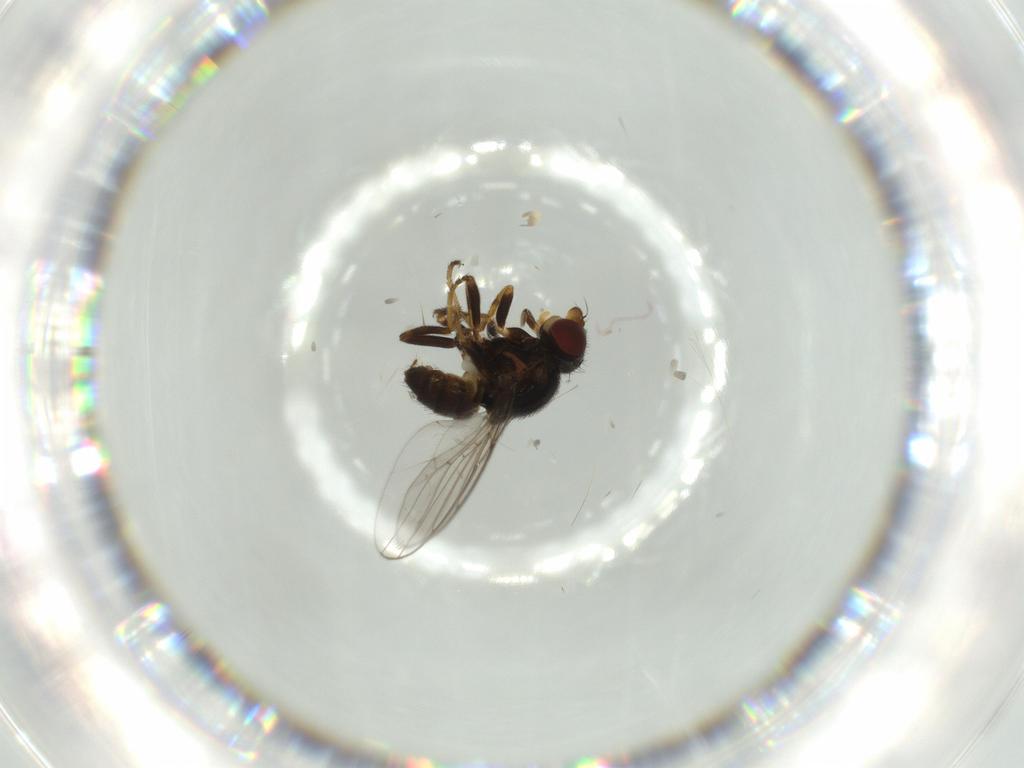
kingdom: Animalia
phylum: Arthropoda
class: Insecta
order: Diptera
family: Chloropidae
